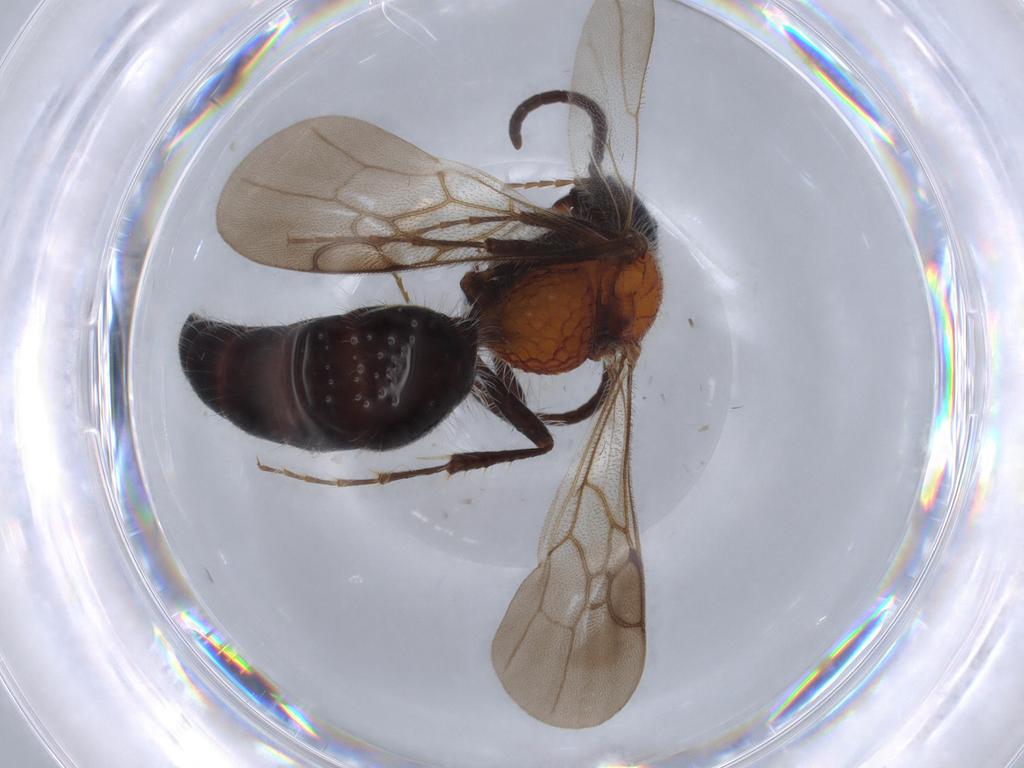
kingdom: Animalia
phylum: Arthropoda
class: Insecta
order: Hymenoptera
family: Mutillidae
